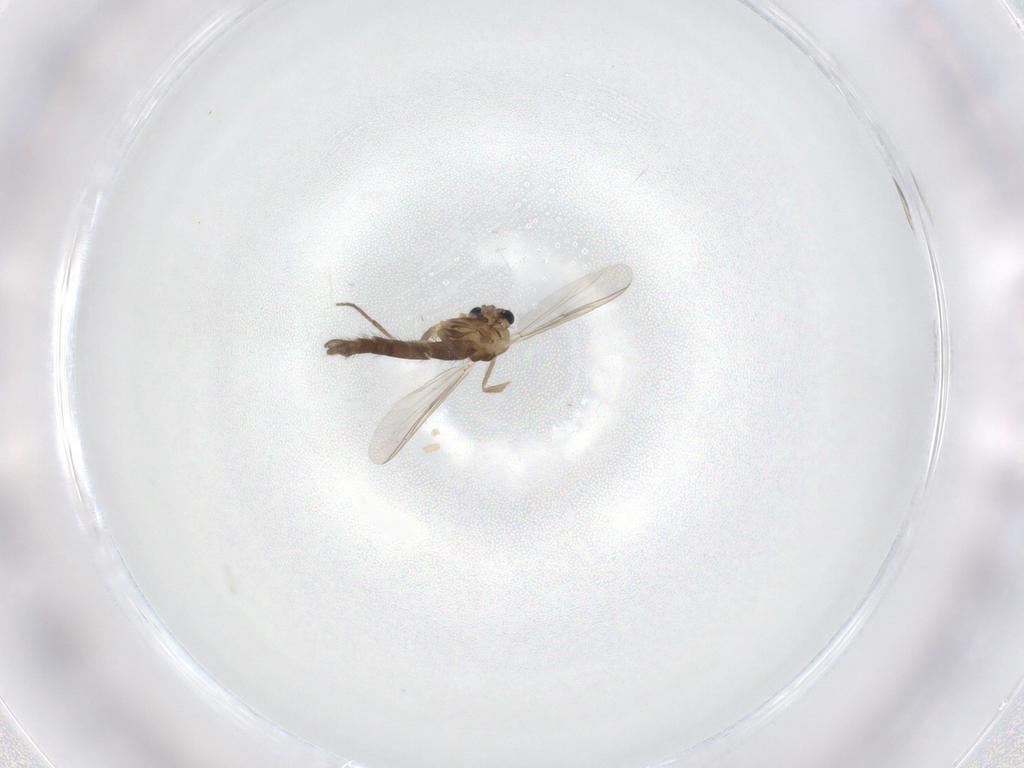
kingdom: Animalia
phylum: Arthropoda
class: Insecta
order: Diptera
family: Chironomidae
